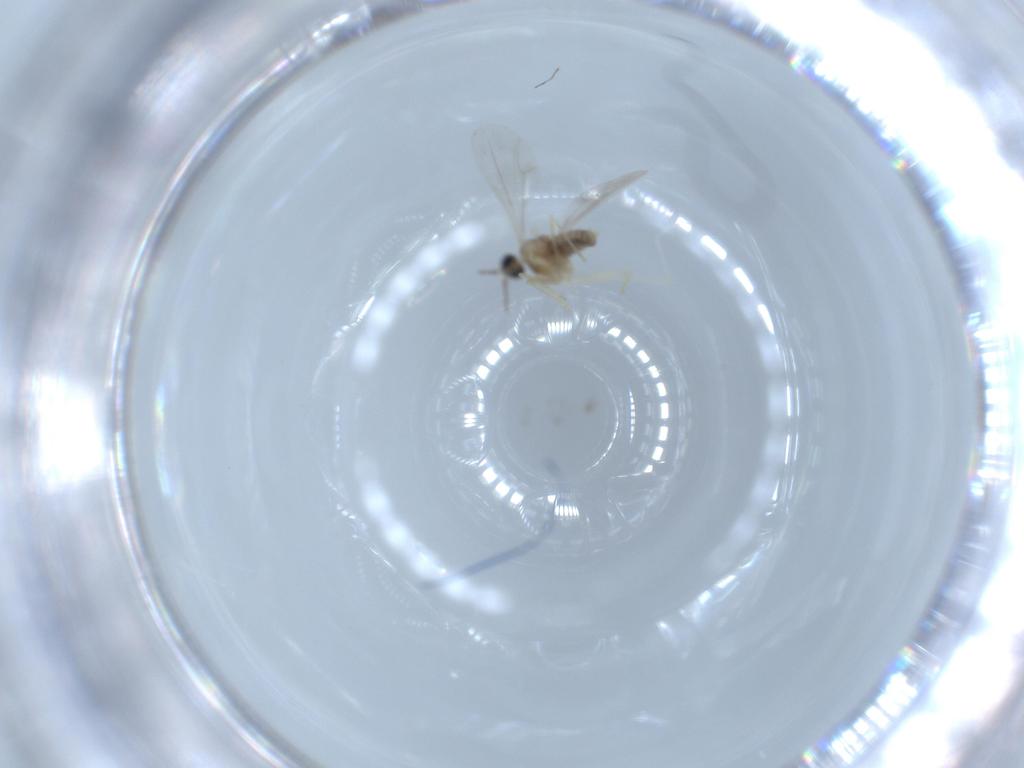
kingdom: Animalia
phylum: Arthropoda
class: Insecta
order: Diptera
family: Cecidomyiidae
